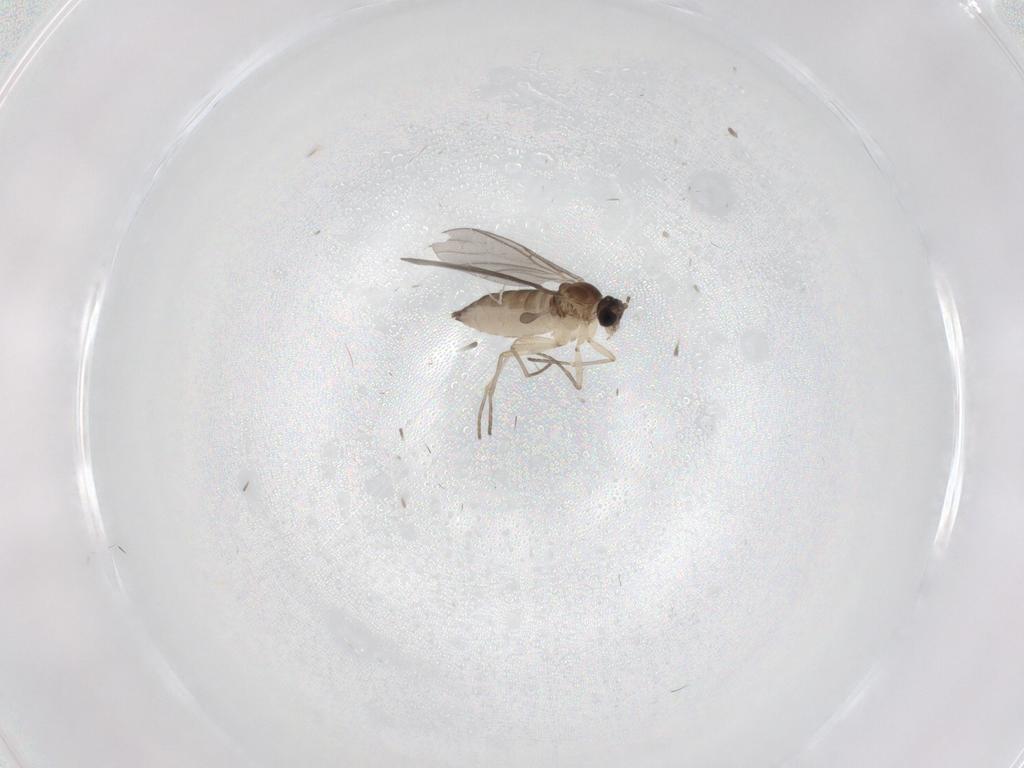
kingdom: Animalia
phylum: Arthropoda
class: Insecta
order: Diptera
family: Sciaridae
